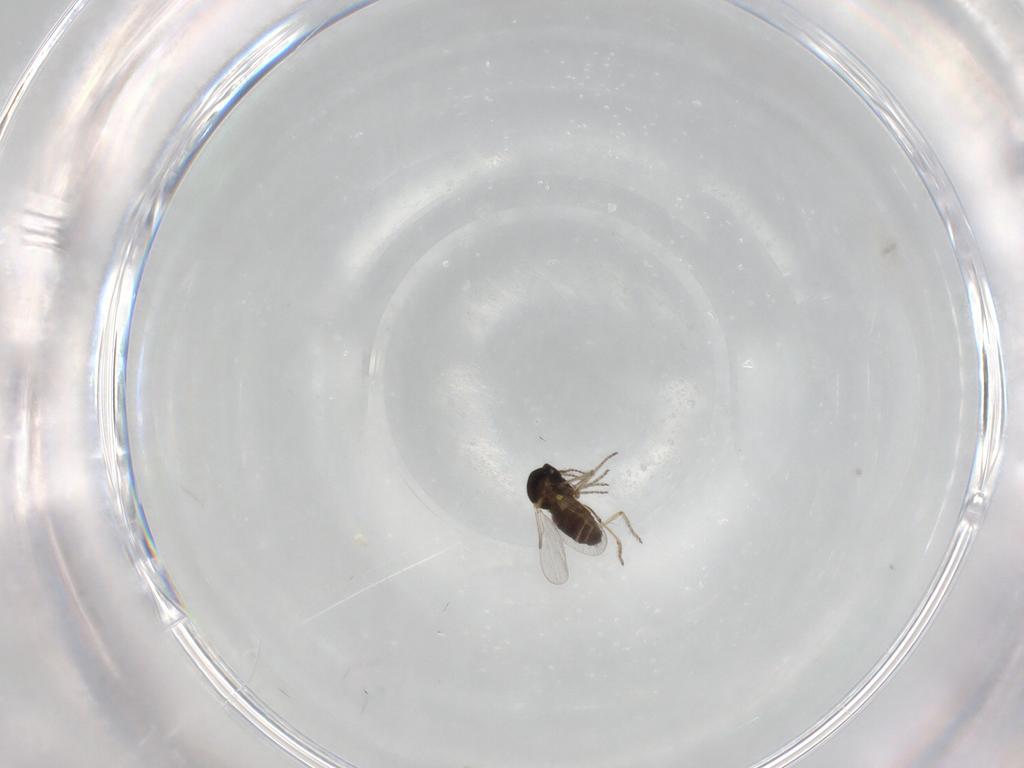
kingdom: Animalia
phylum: Arthropoda
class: Insecta
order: Diptera
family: Ceratopogonidae
